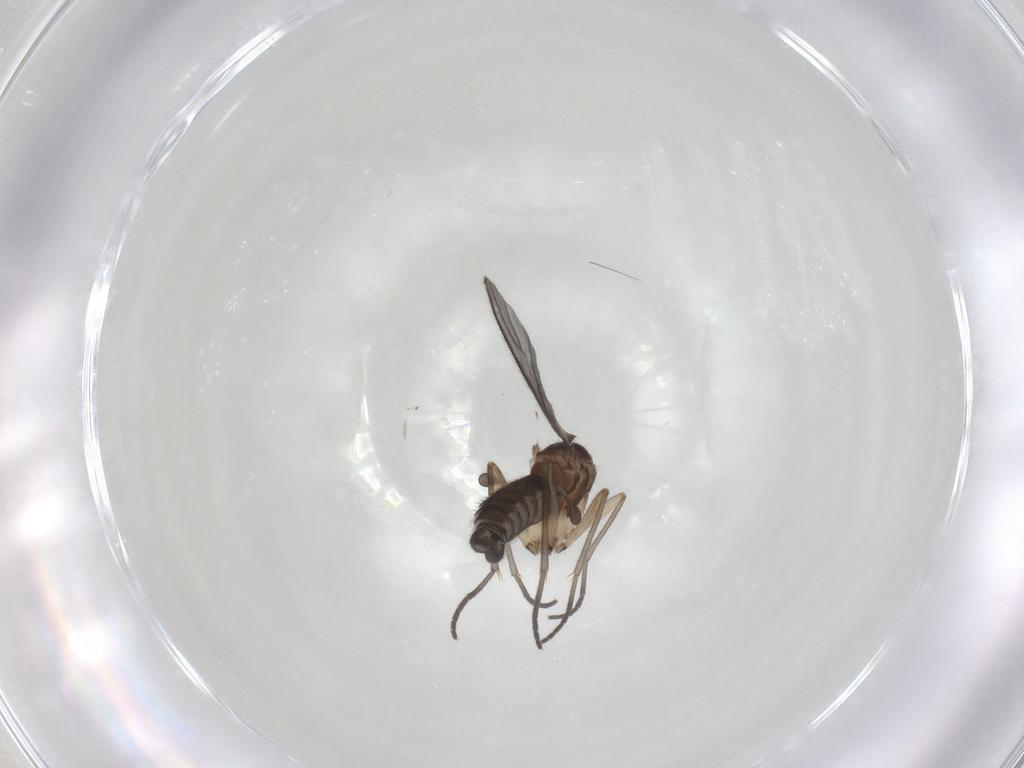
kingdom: Animalia
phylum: Arthropoda
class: Insecta
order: Diptera
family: Sciaridae
